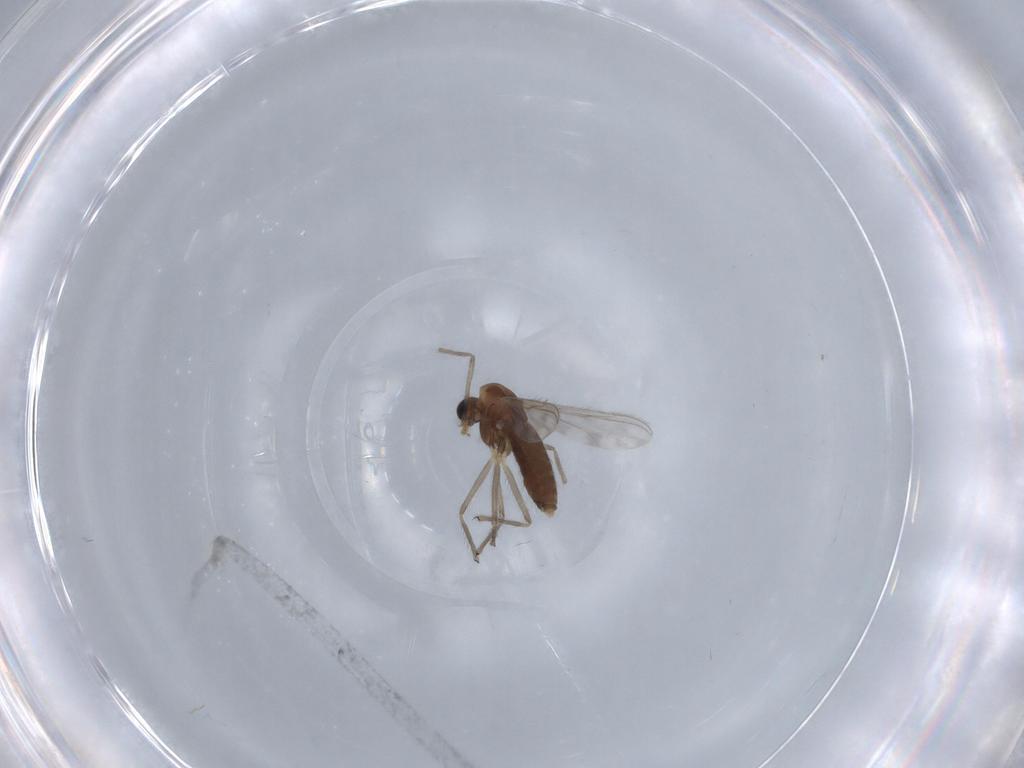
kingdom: Animalia
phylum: Arthropoda
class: Insecta
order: Diptera
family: Chironomidae
